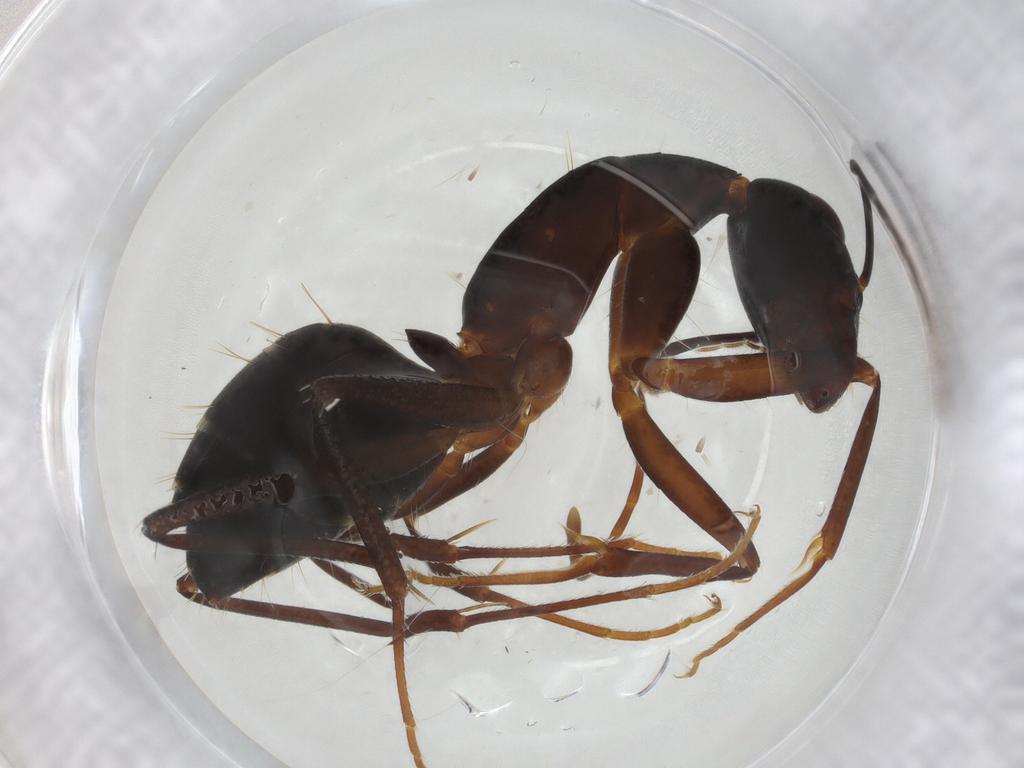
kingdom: Animalia
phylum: Arthropoda
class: Insecta
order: Hymenoptera
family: Formicidae
